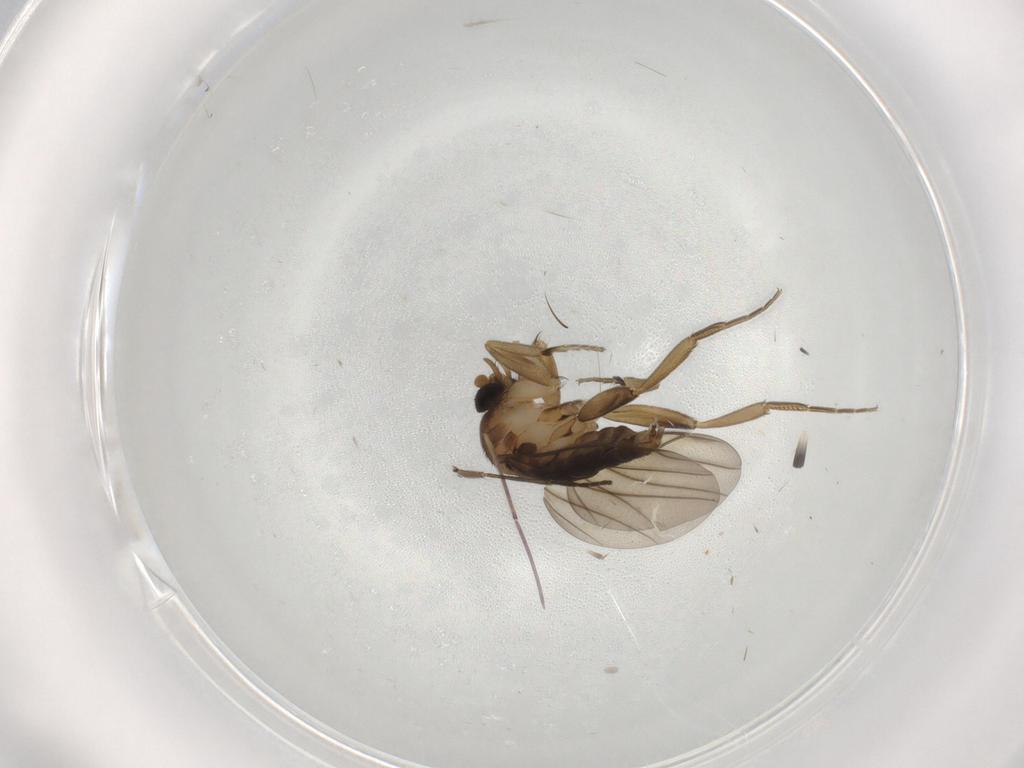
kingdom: Animalia
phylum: Arthropoda
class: Insecta
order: Diptera
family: Phoridae
